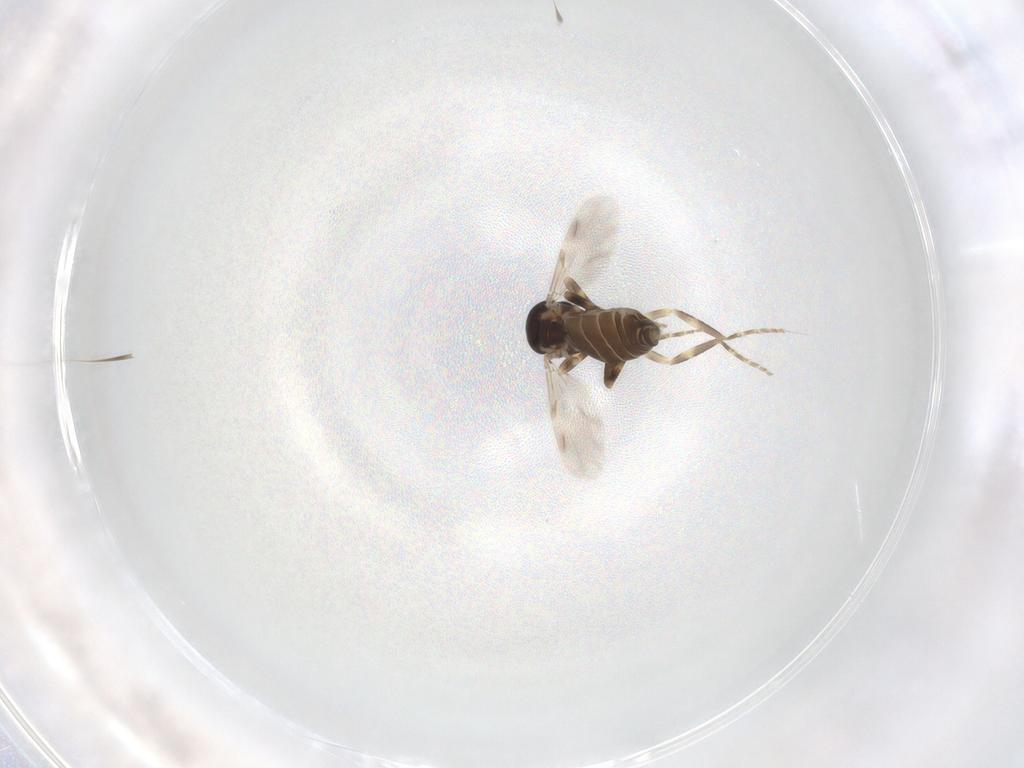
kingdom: Animalia
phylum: Arthropoda
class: Insecta
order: Diptera
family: Ceratopogonidae
